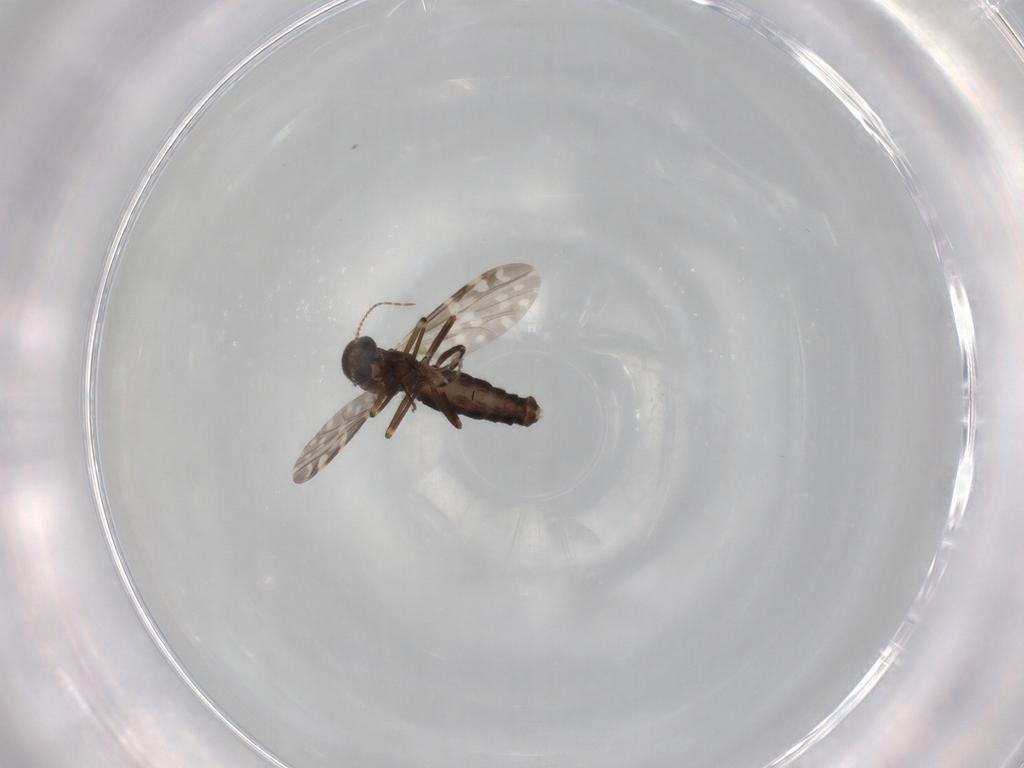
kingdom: Animalia
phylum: Arthropoda
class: Insecta
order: Diptera
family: Ceratopogonidae
